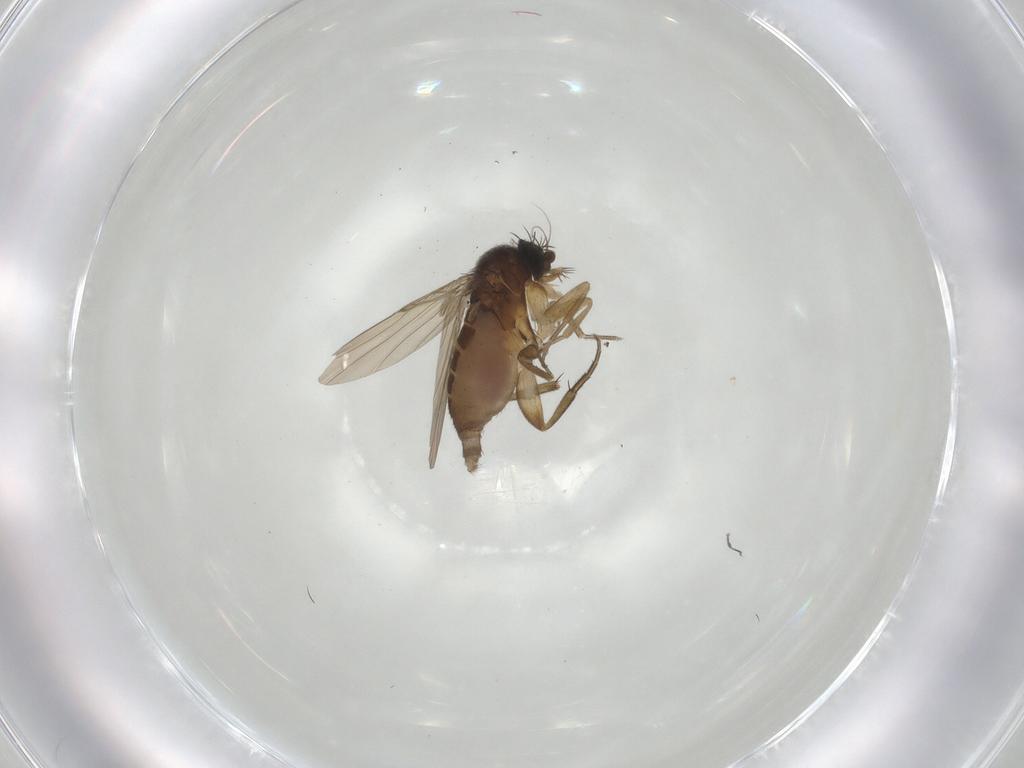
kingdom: Animalia
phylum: Arthropoda
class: Insecta
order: Diptera
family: Phoridae
